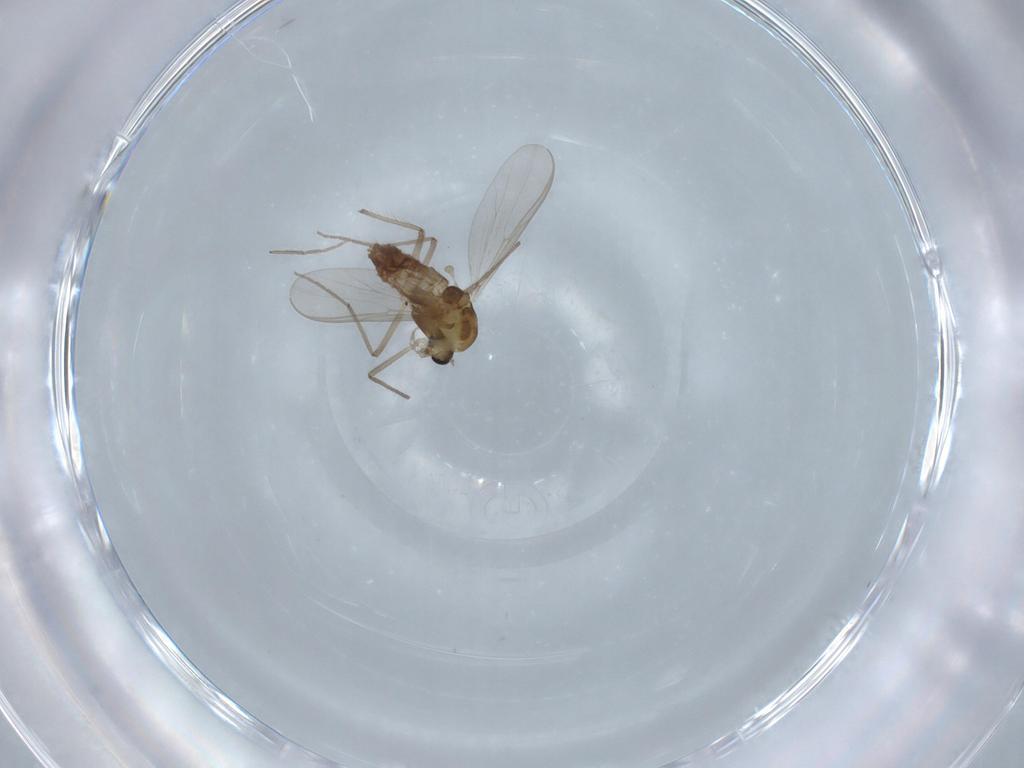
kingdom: Animalia
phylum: Arthropoda
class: Insecta
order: Diptera
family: Chironomidae
